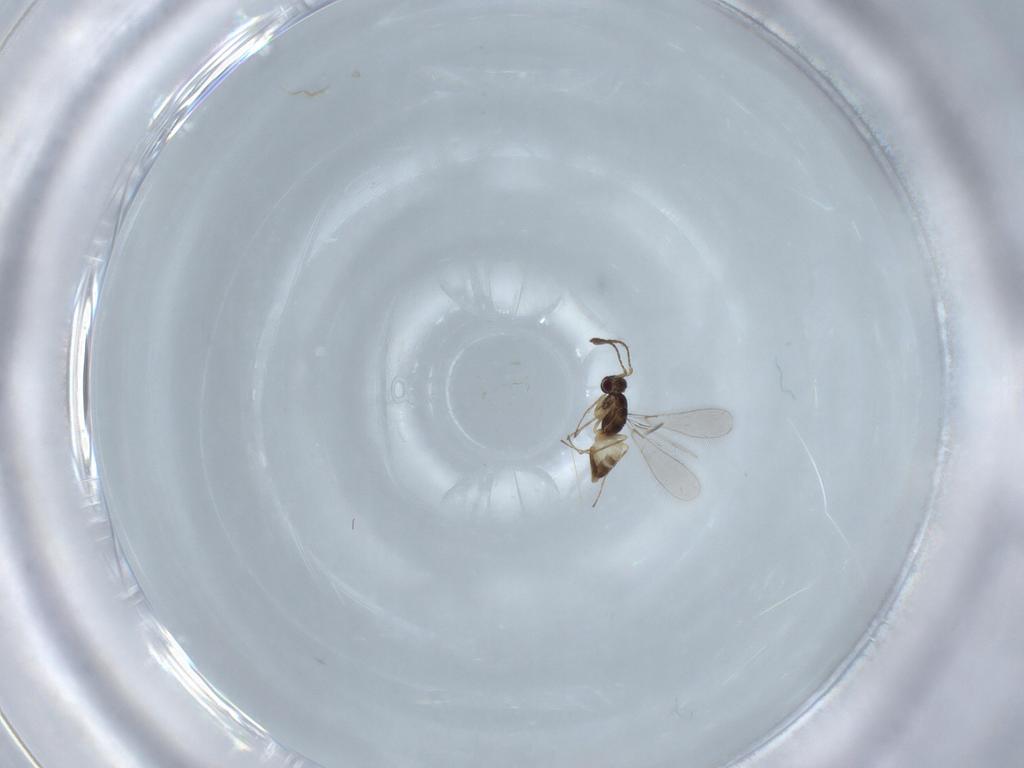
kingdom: Animalia
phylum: Arthropoda
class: Insecta
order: Hymenoptera
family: Mymaridae
